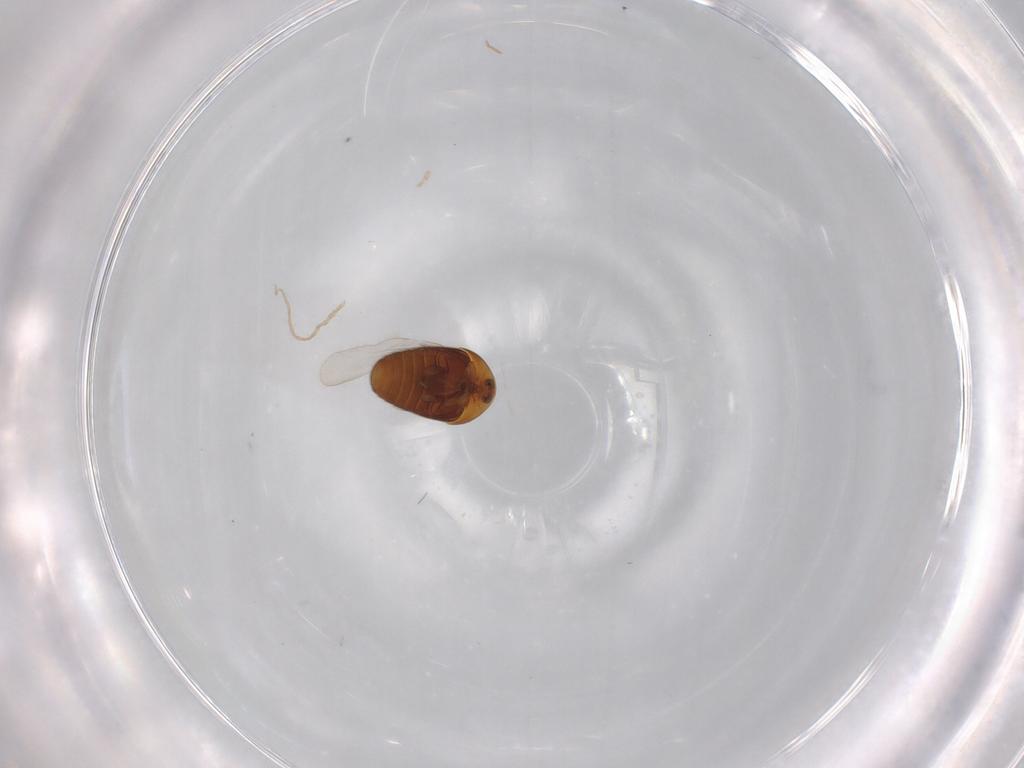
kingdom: Animalia
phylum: Arthropoda
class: Insecta
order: Coleoptera
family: Corylophidae
